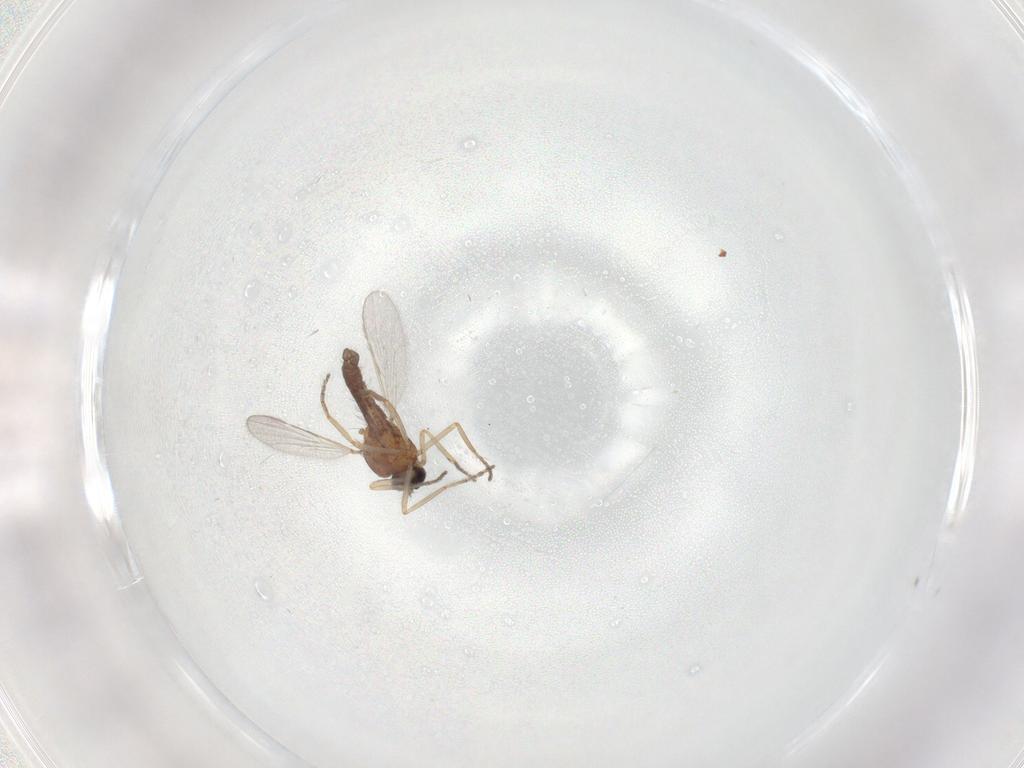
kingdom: Animalia
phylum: Arthropoda
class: Insecta
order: Diptera
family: Ceratopogonidae
